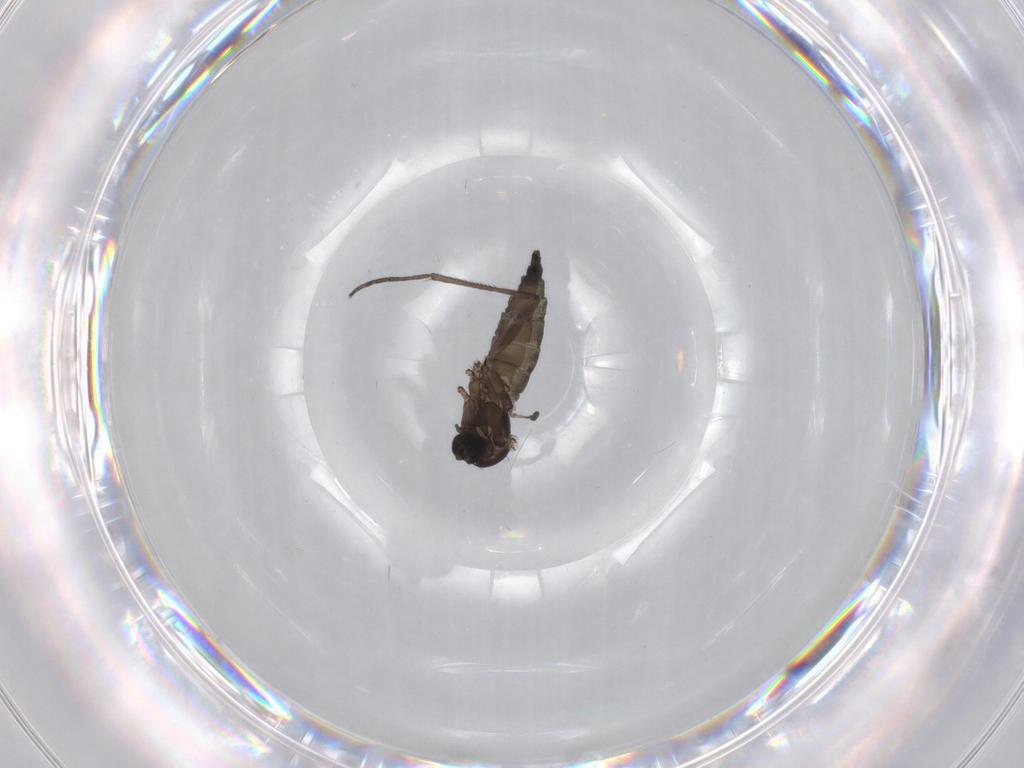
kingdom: Animalia
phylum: Arthropoda
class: Insecta
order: Diptera
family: Sciaridae
